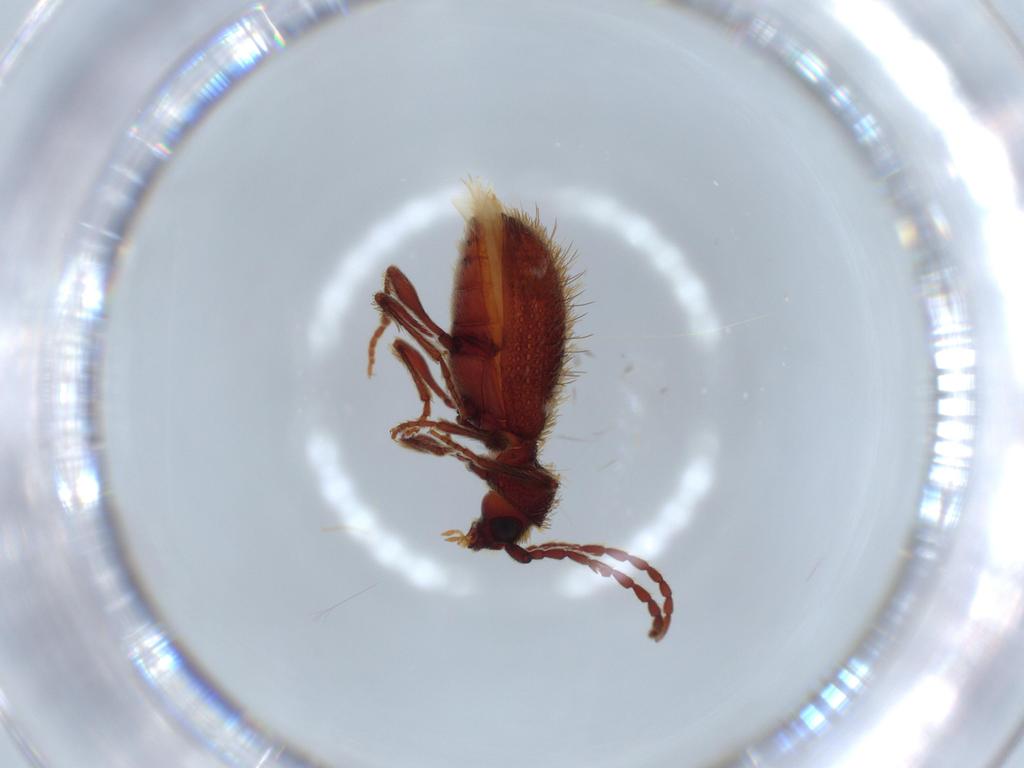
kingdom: Animalia
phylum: Arthropoda
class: Insecta
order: Coleoptera
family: Ptinidae
